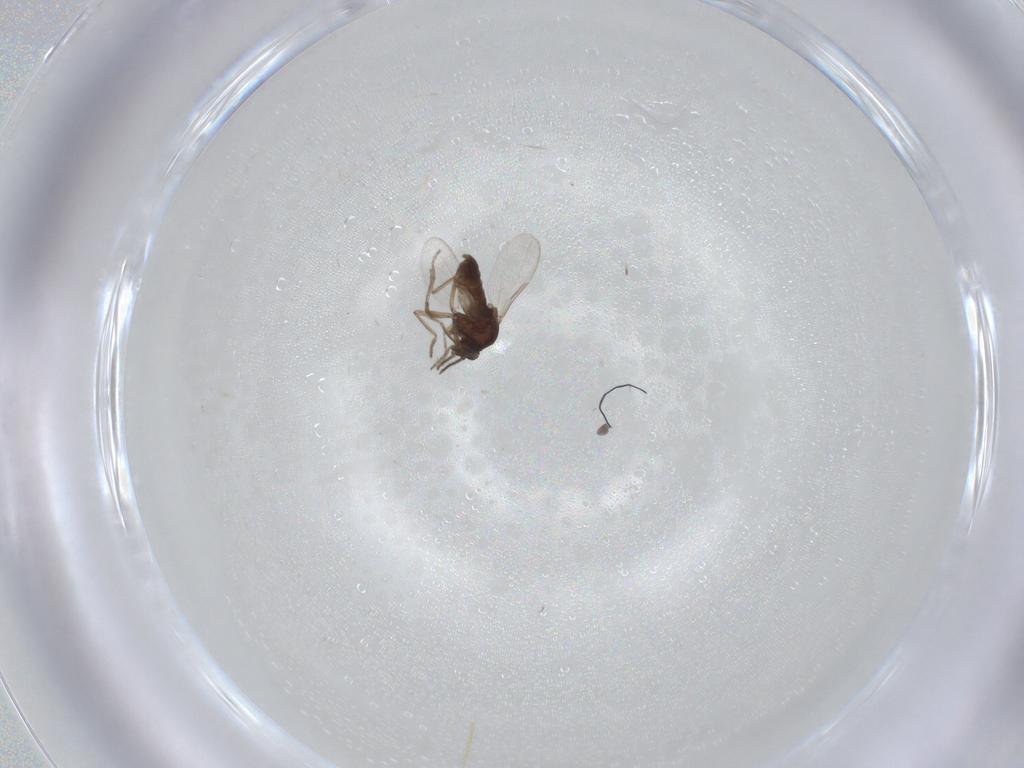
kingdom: Animalia
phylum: Arthropoda
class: Insecta
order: Diptera
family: Ceratopogonidae
